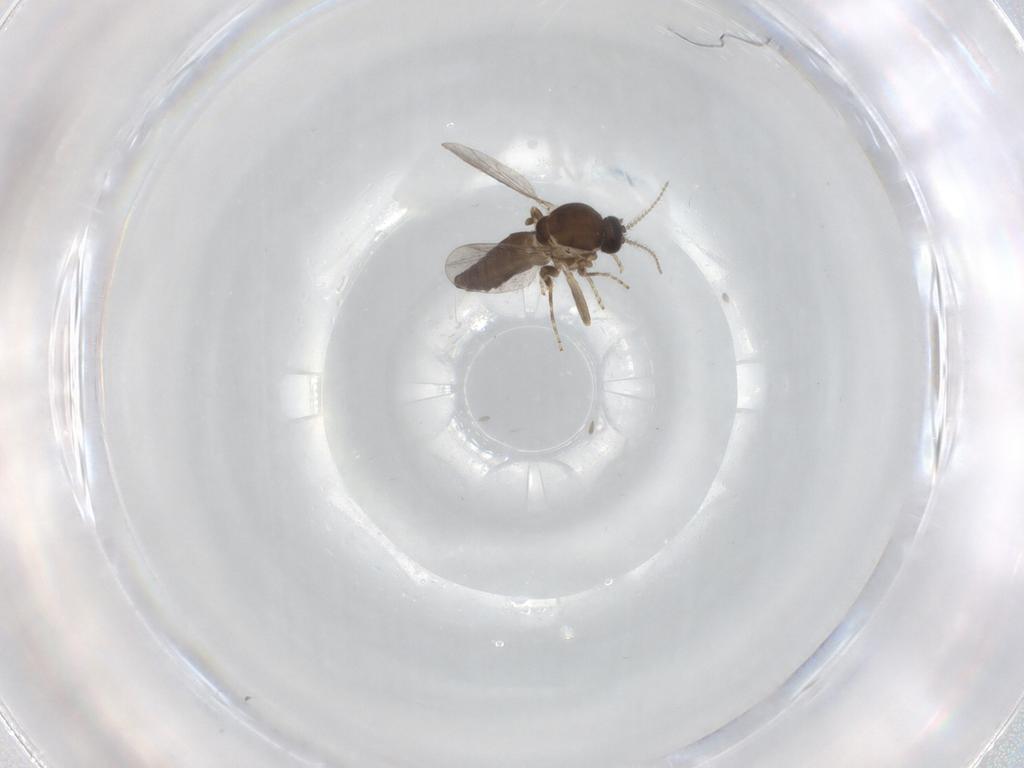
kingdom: Animalia
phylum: Arthropoda
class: Insecta
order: Diptera
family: Ceratopogonidae
